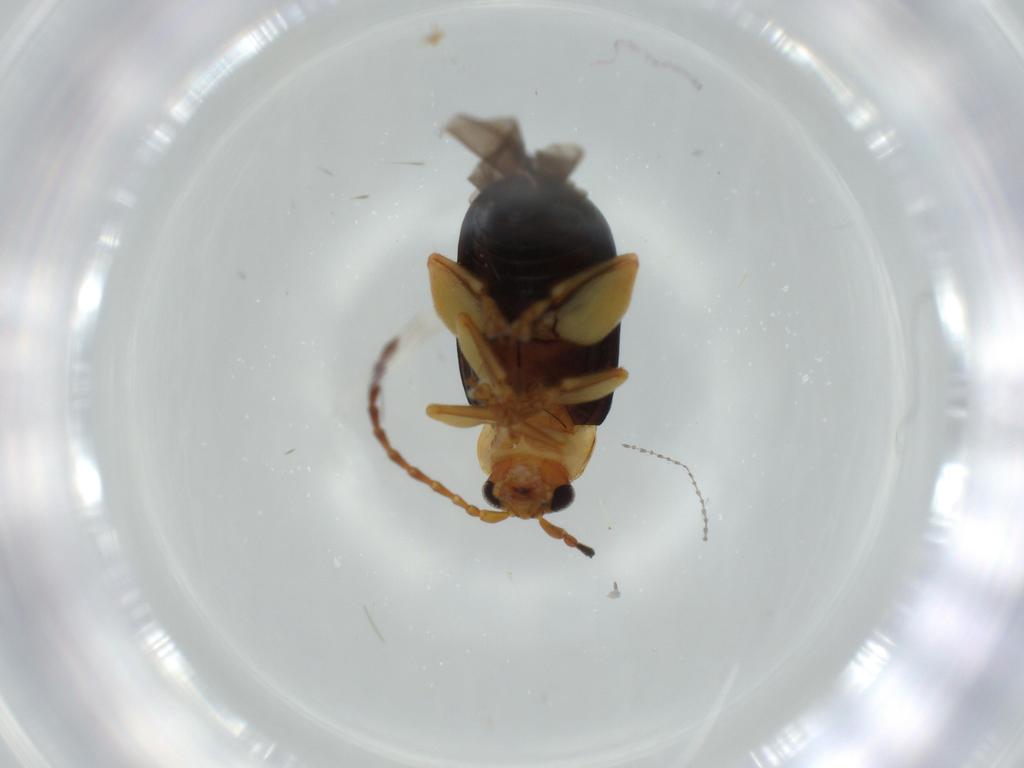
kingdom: Animalia
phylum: Arthropoda
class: Insecta
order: Coleoptera
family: Chrysomelidae
